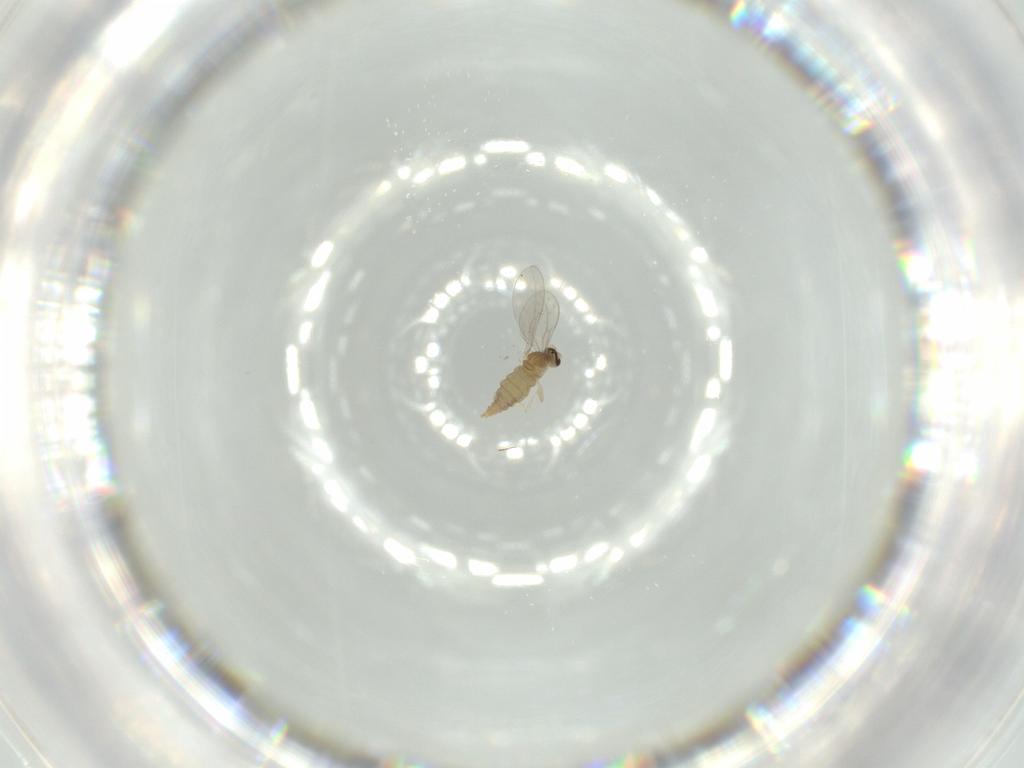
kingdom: Animalia
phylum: Arthropoda
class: Insecta
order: Diptera
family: Cecidomyiidae
